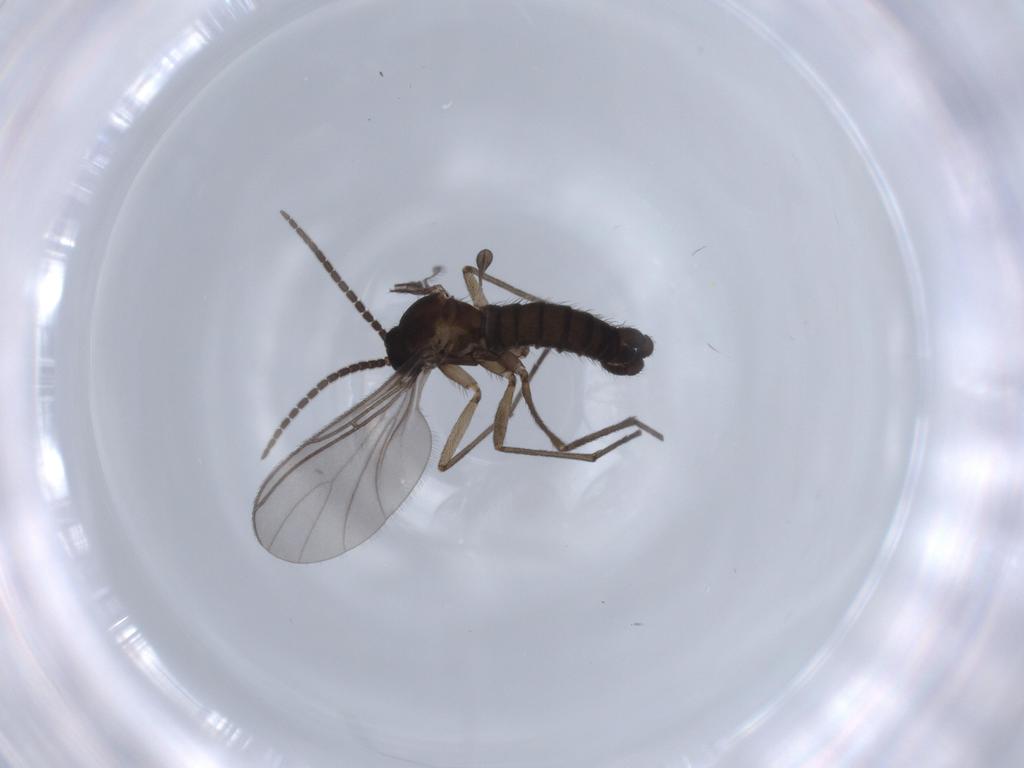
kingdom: Animalia
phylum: Arthropoda
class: Insecta
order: Diptera
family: Sciaridae
